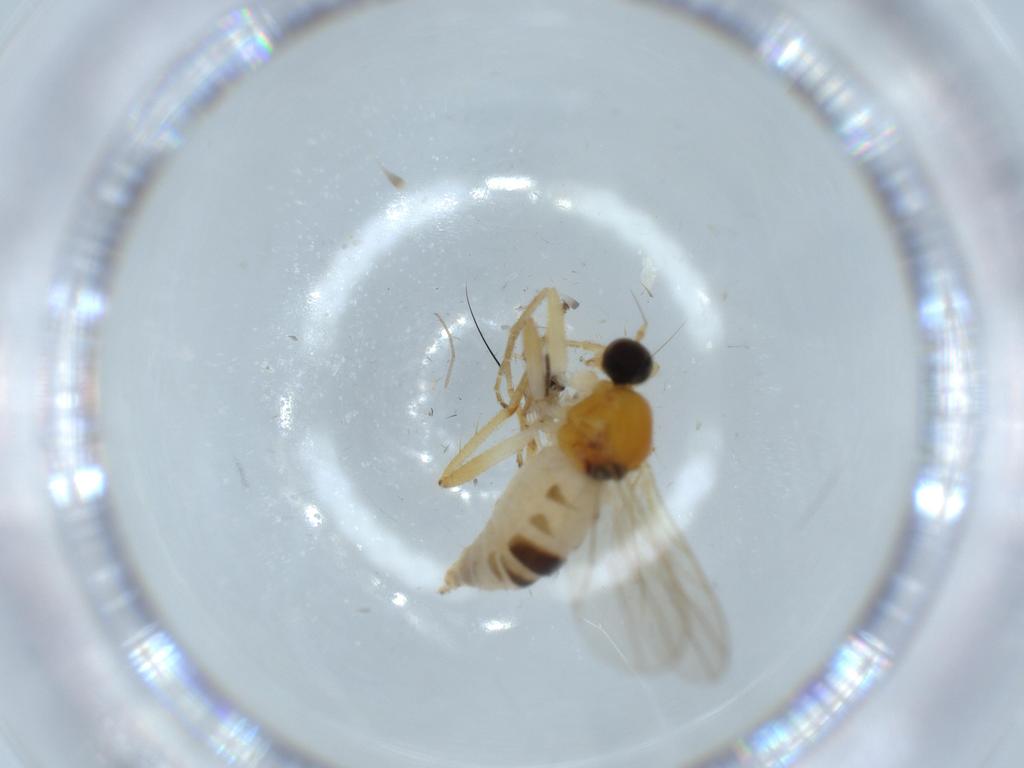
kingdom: Animalia
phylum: Arthropoda
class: Insecta
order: Diptera
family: Hybotidae
